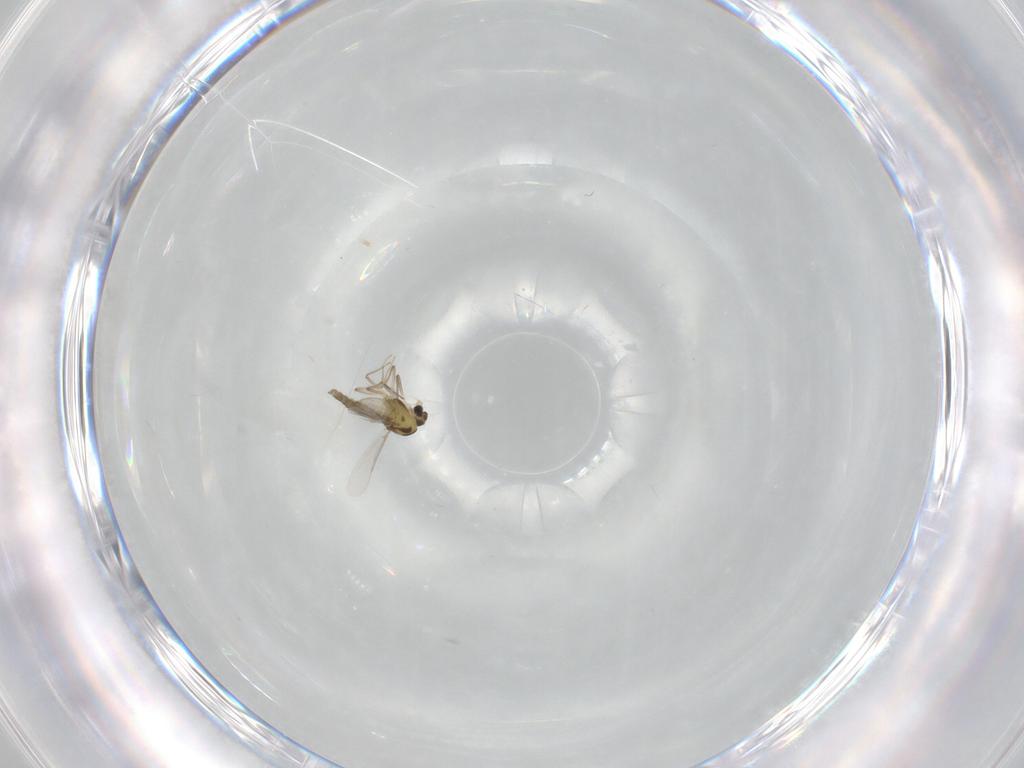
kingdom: Animalia
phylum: Arthropoda
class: Insecta
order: Diptera
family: Chironomidae
